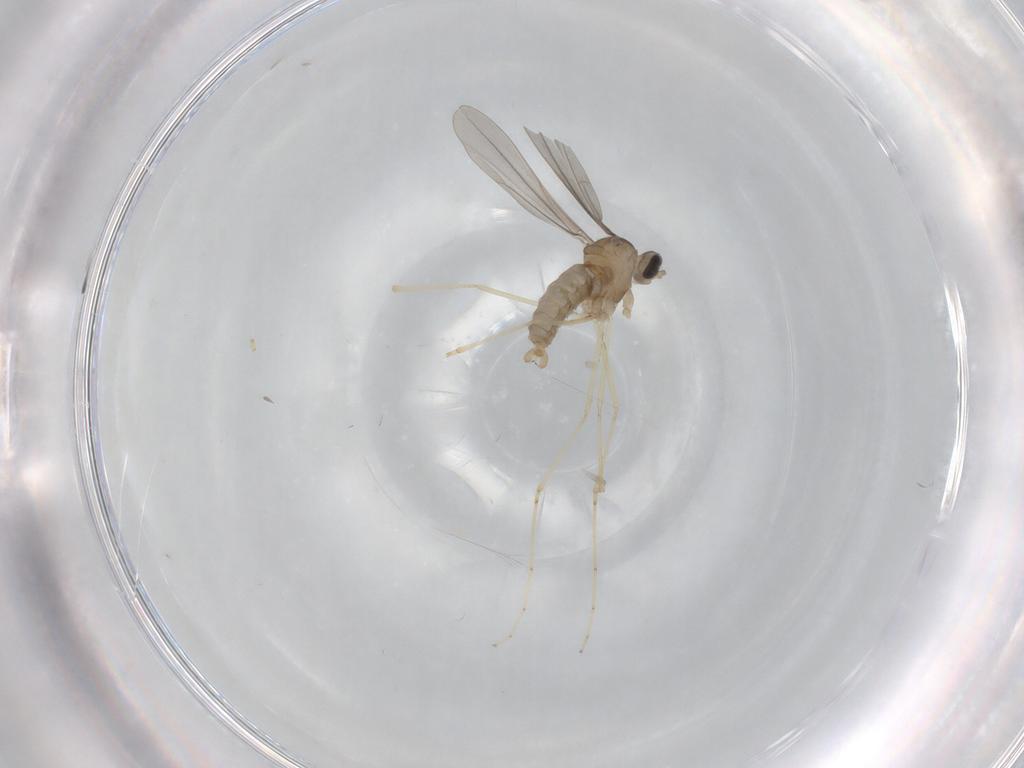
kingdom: Animalia
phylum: Arthropoda
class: Insecta
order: Diptera
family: Cecidomyiidae
